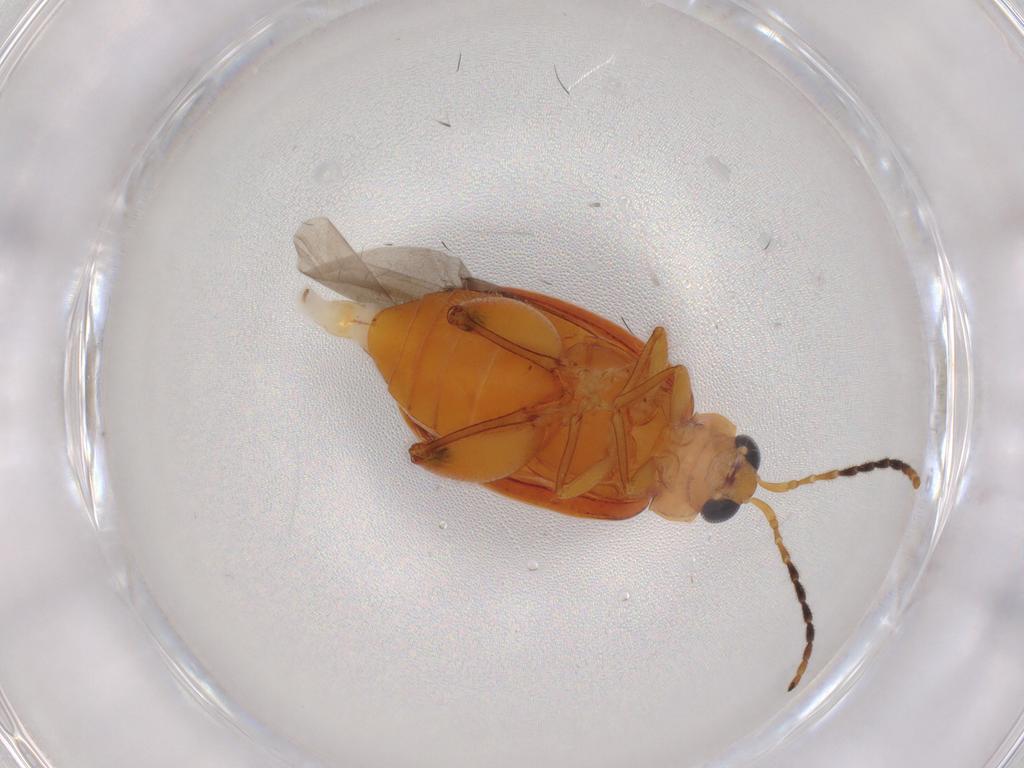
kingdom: Animalia
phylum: Arthropoda
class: Insecta
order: Coleoptera
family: Chrysomelidae
